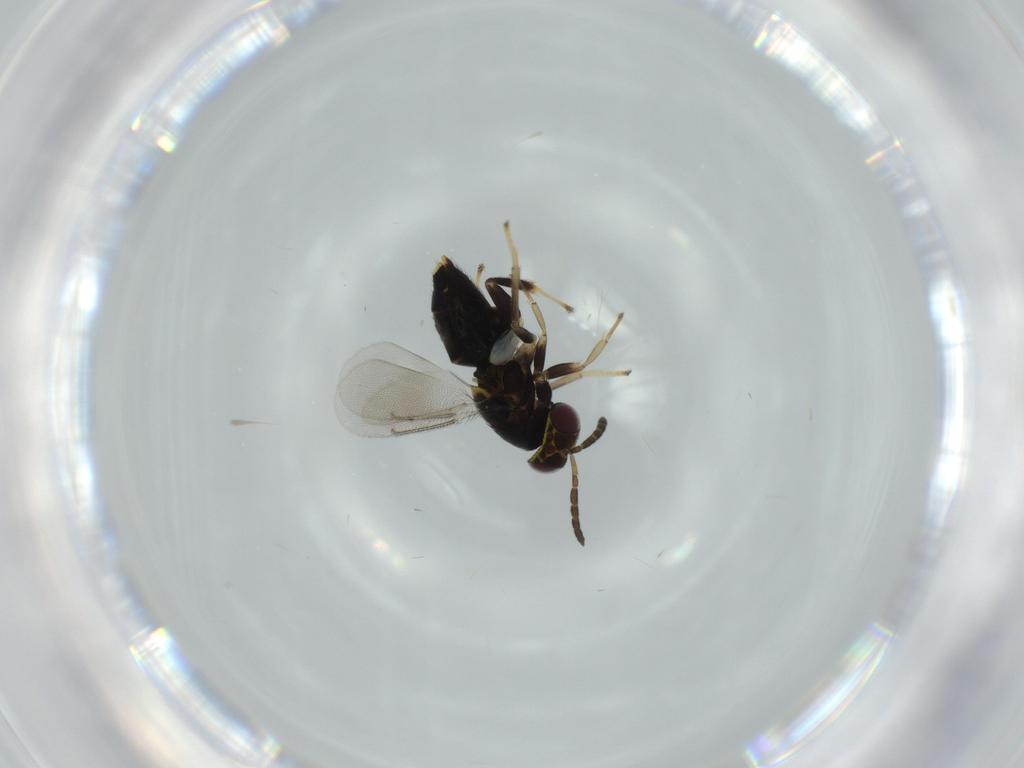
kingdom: Animalia
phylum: Arthropoda
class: Insecta
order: Hymenoptera
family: Aphelinidae
